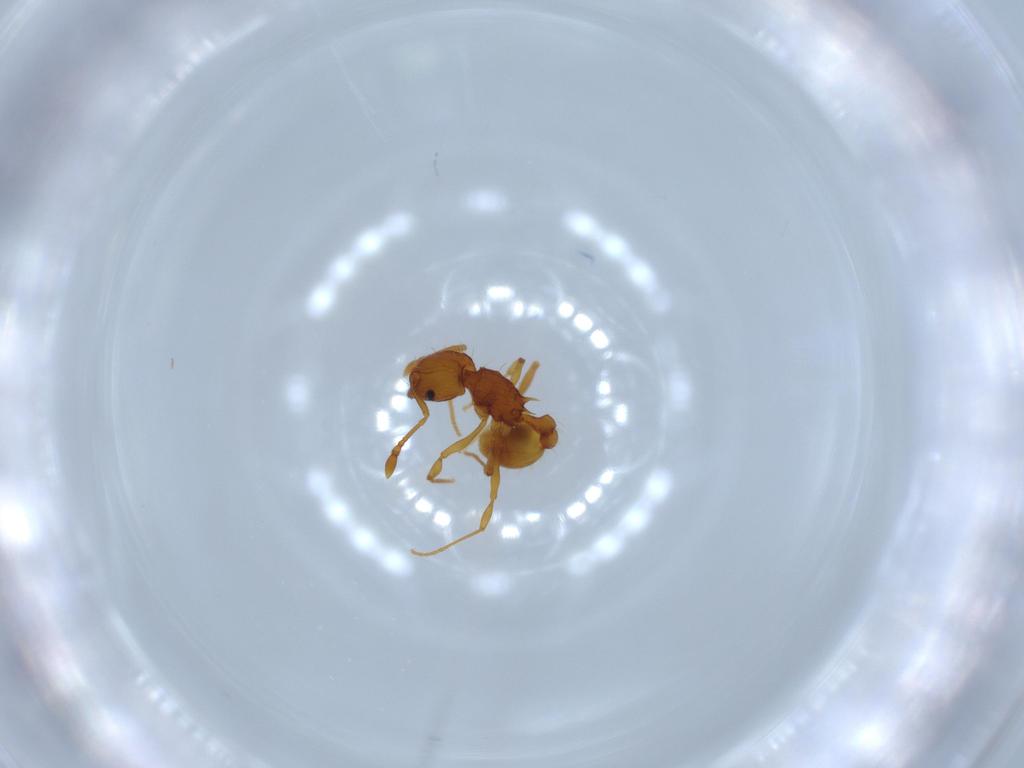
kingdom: Animalia
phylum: Arthropoda
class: Insecta
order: Hymenoptera
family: Formicidae
